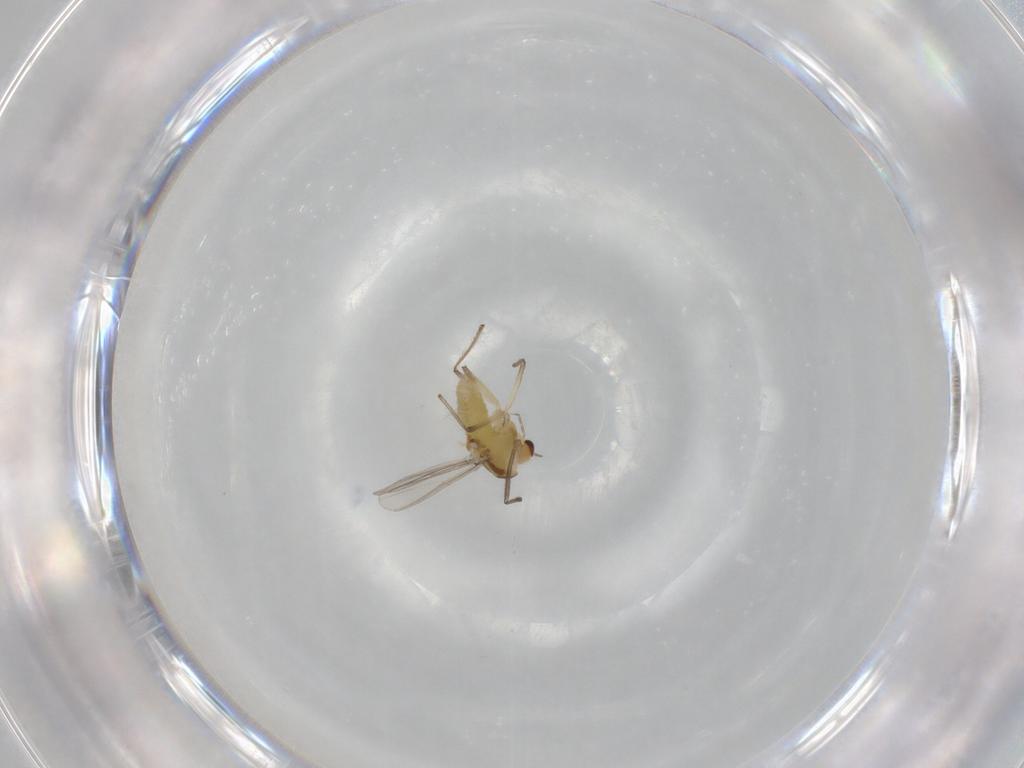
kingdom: Animalia
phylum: Arthropoda
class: Insecta
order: Diptera
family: Chironomidae
